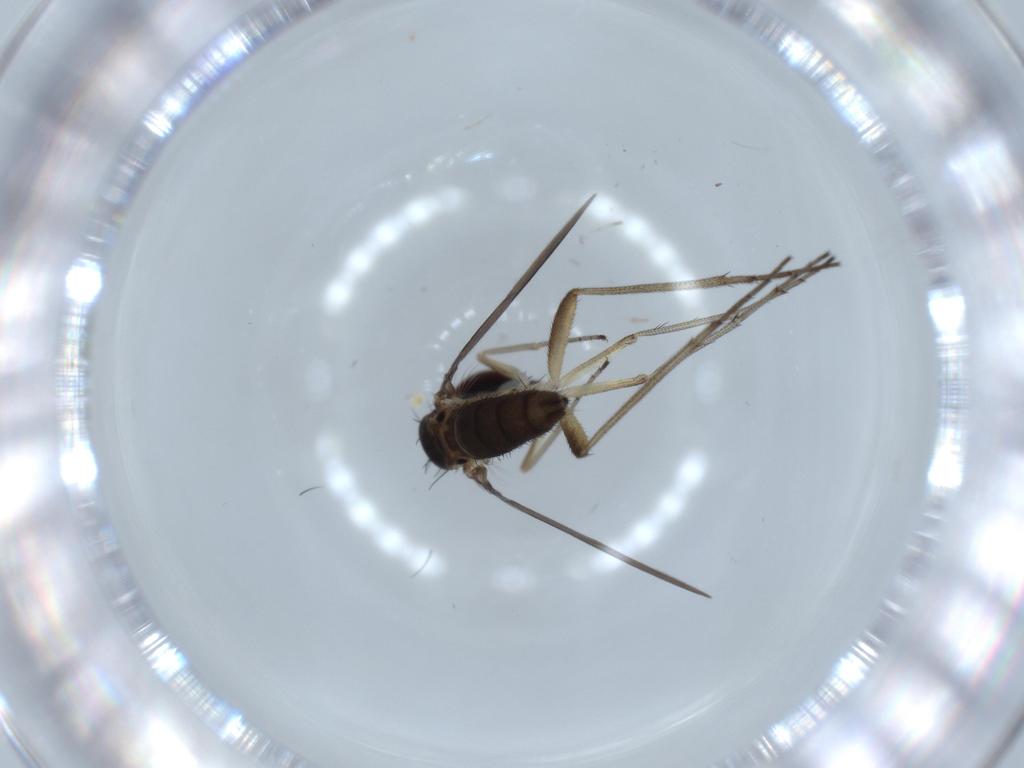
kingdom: Animalia
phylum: Arthropoda
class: Insecta
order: Diptera
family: Dolichopodidae
